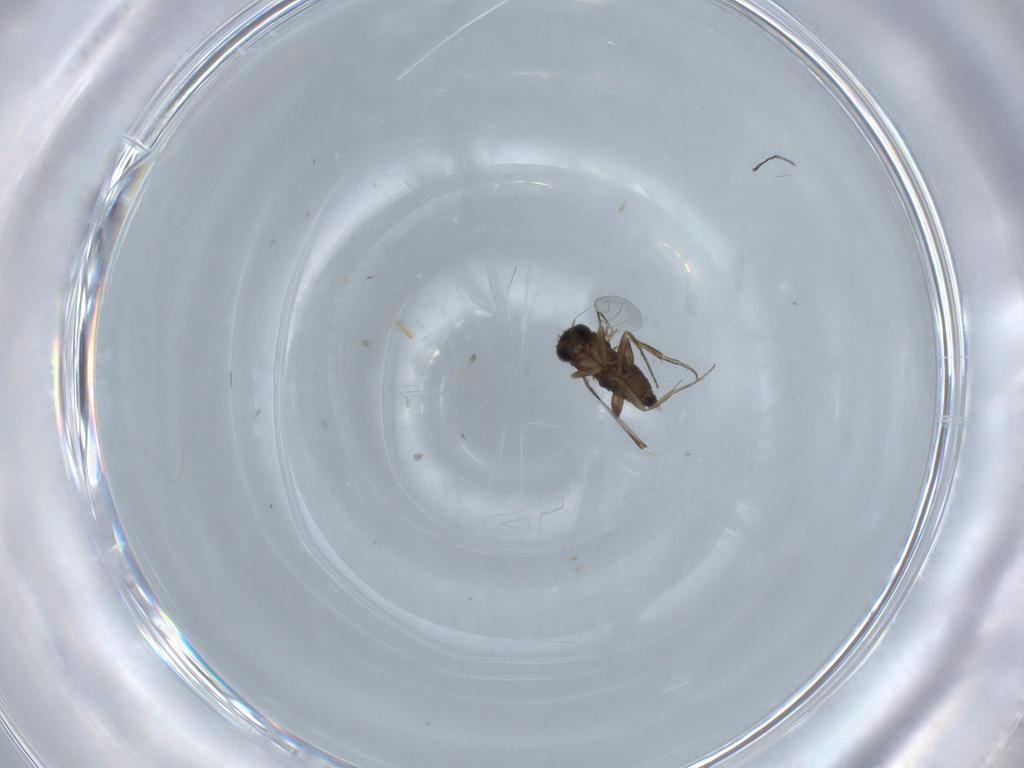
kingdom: Animalia
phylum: Arthropoda
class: Insecta
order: Diptera
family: Phoridae
